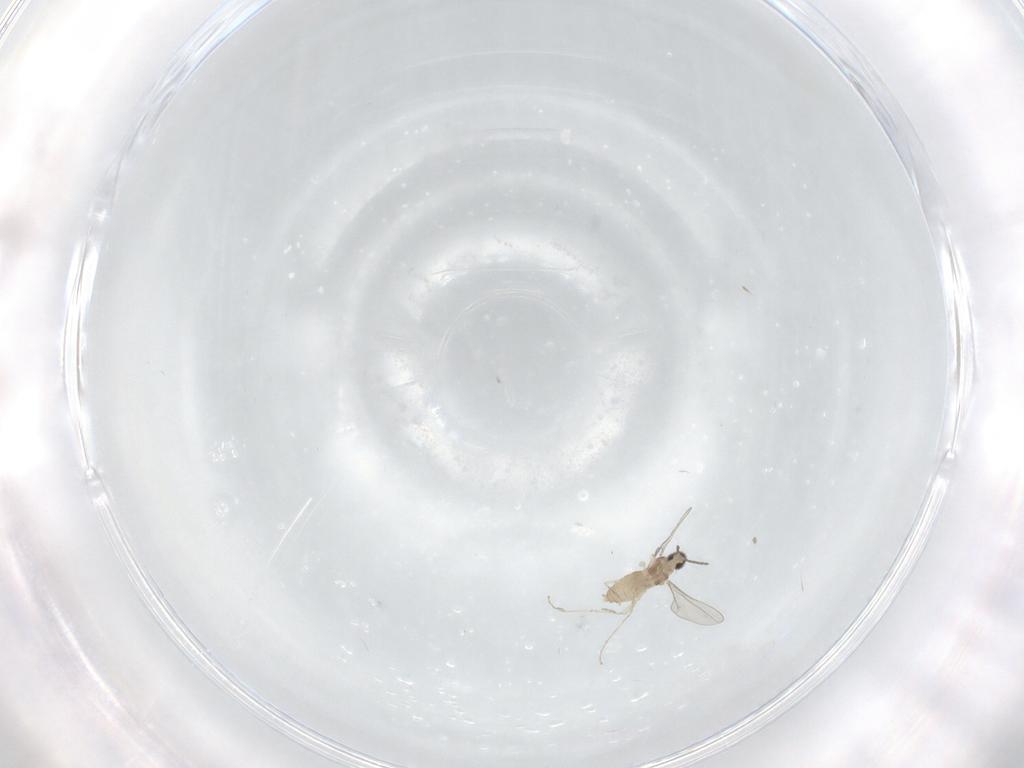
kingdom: Animalia
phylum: Arthropoda
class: Insecta
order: Diptera
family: Cecidomyiidae
